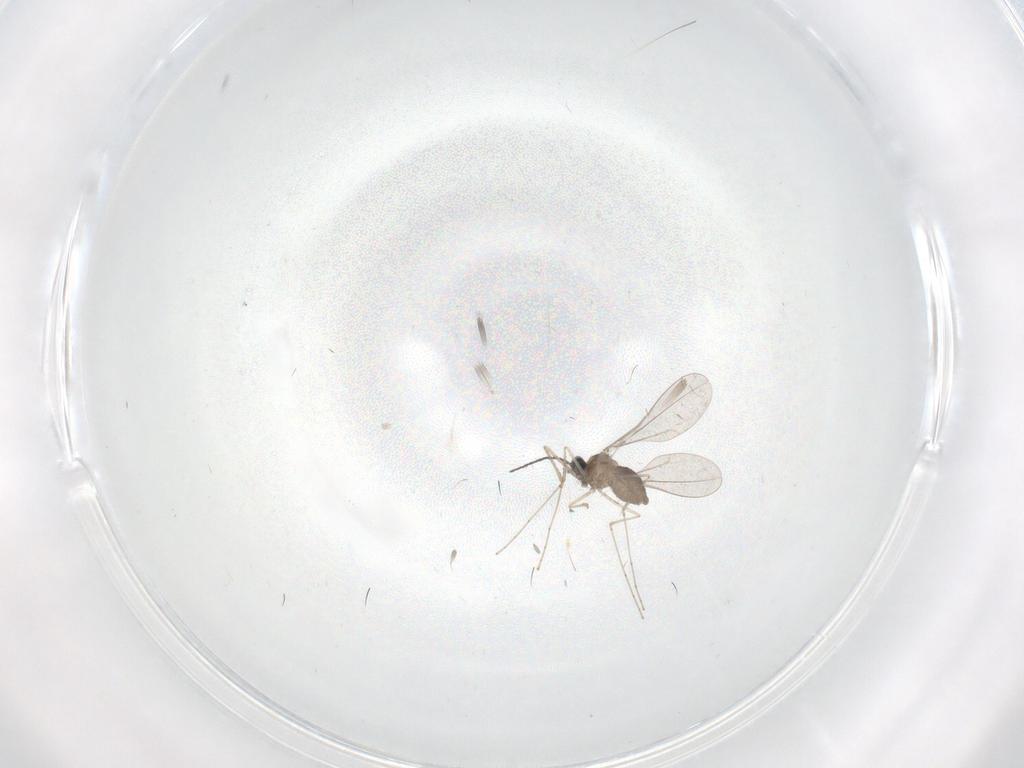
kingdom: Animalia
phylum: Arthropoda
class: Insecta
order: Diptera
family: Cecidomyiidae
